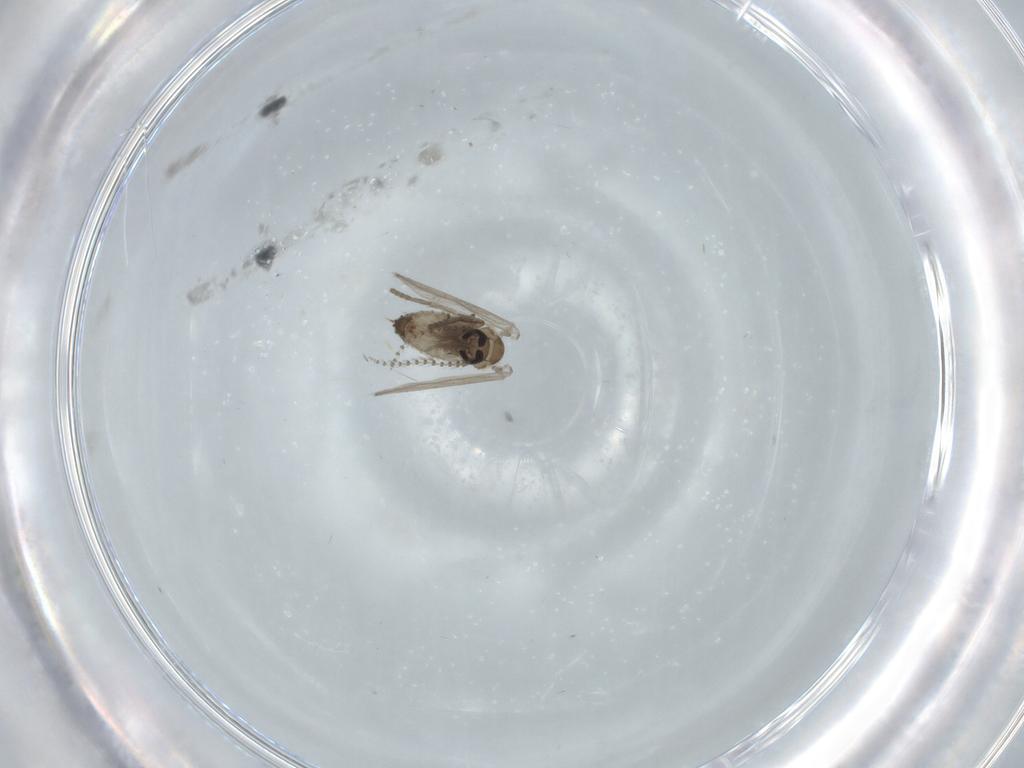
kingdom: Animalia
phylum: Arthropoda
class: Insecta
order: Diptera
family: Psychodidae
